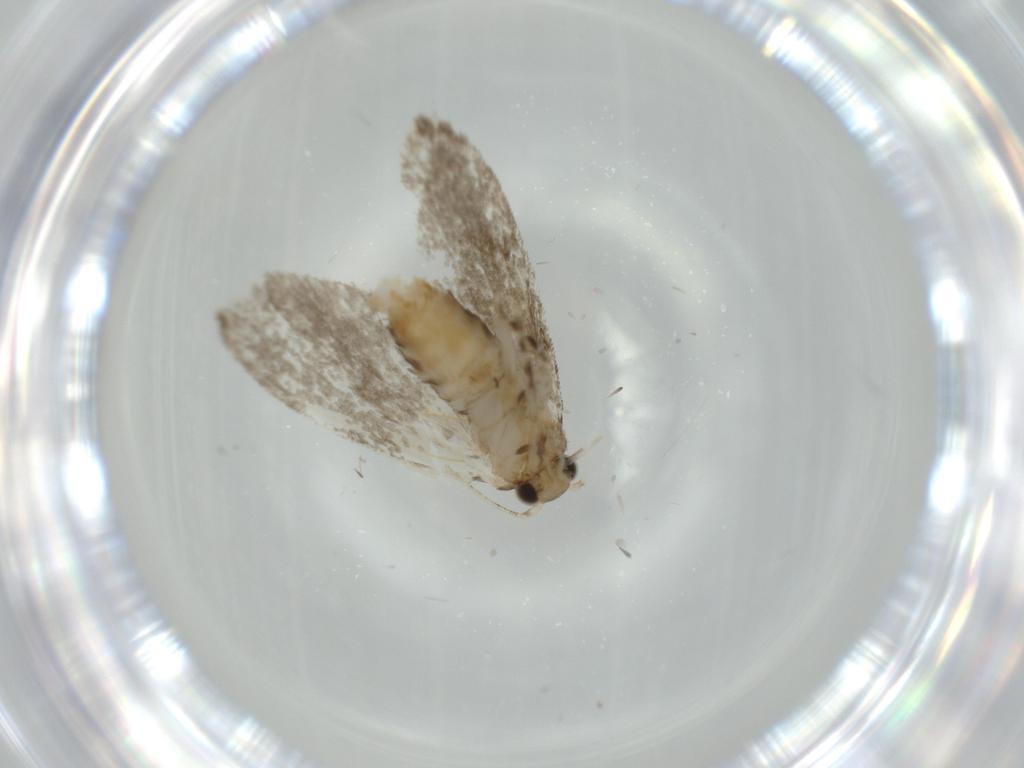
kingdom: Animalia
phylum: Arthropoda
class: Insecta
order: Lepidoptera
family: Tineidae
